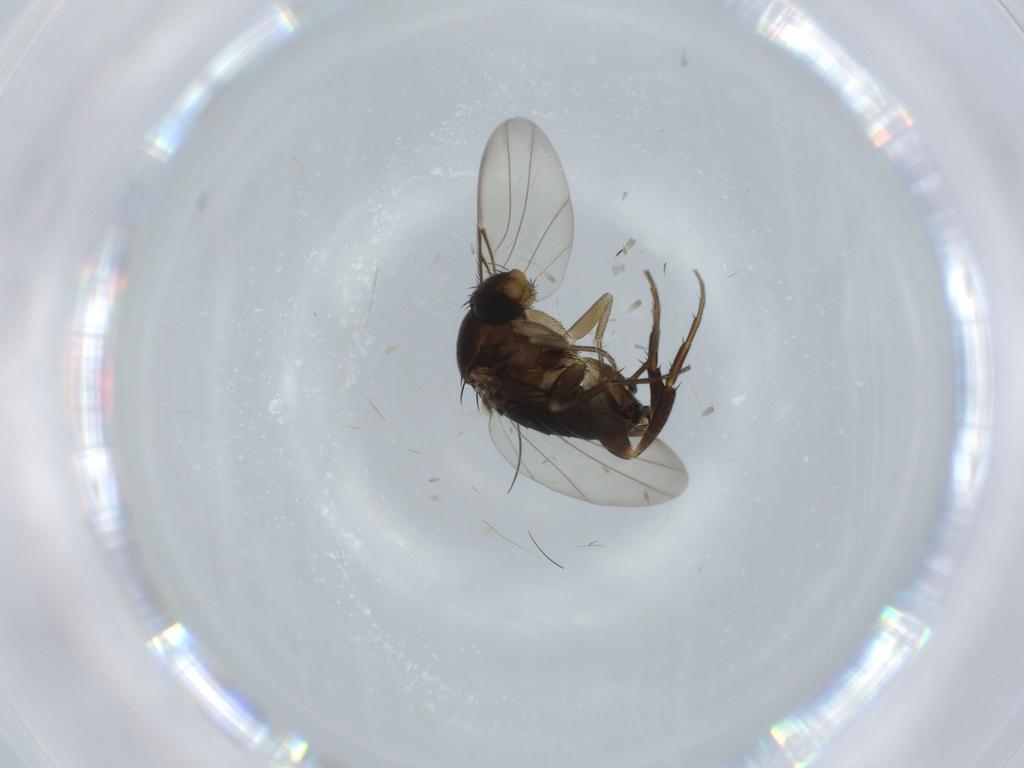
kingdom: Animalia
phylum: Arthropoda
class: Insecta
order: Diptera
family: Phoridae
